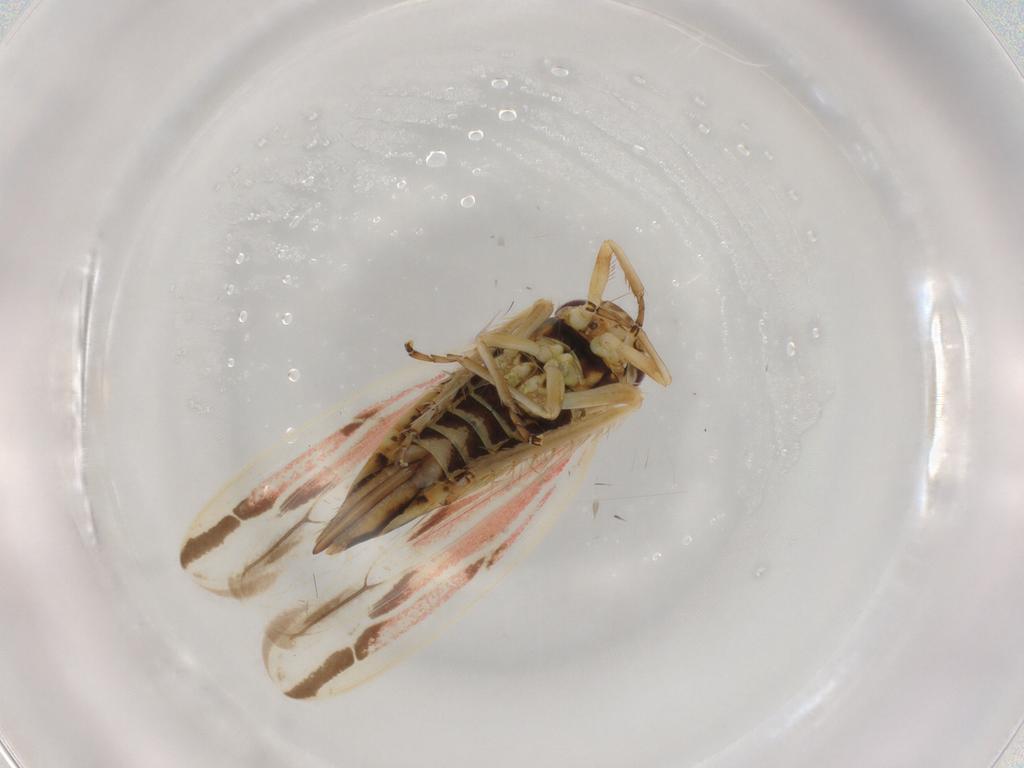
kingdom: Animalia
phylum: Arthropoda
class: Insecta
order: Hemiptera
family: Cicadellidae
